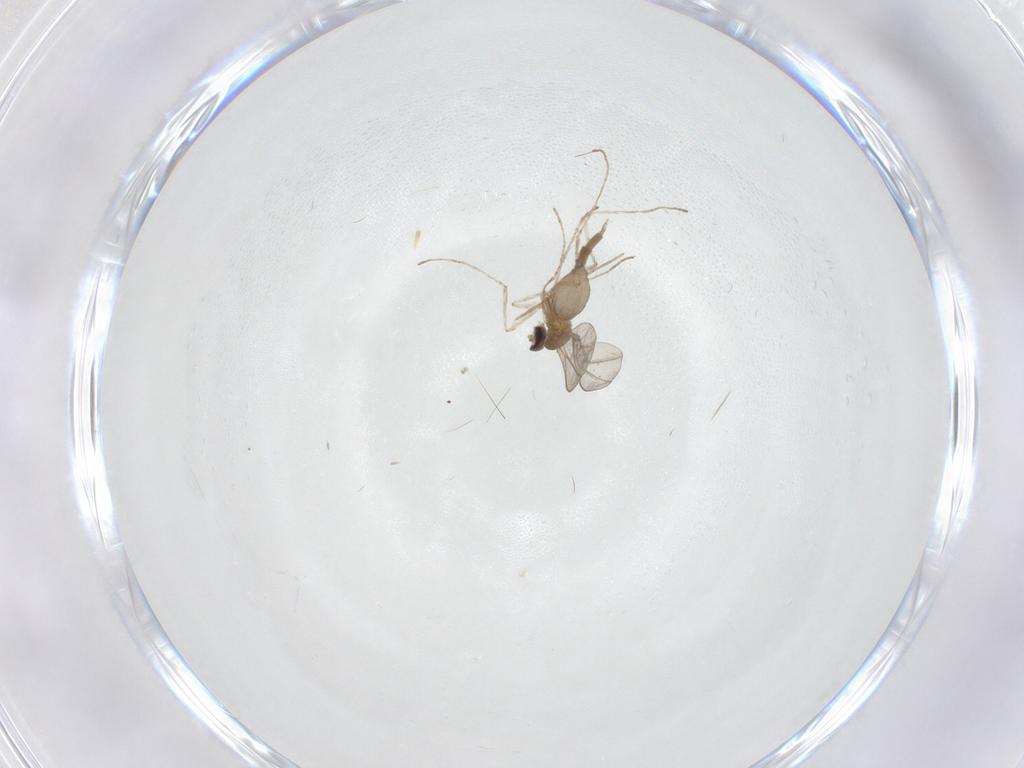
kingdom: Animalia
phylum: Arthropoda
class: Insecta
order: Diptera
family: Cecidomyiidae
